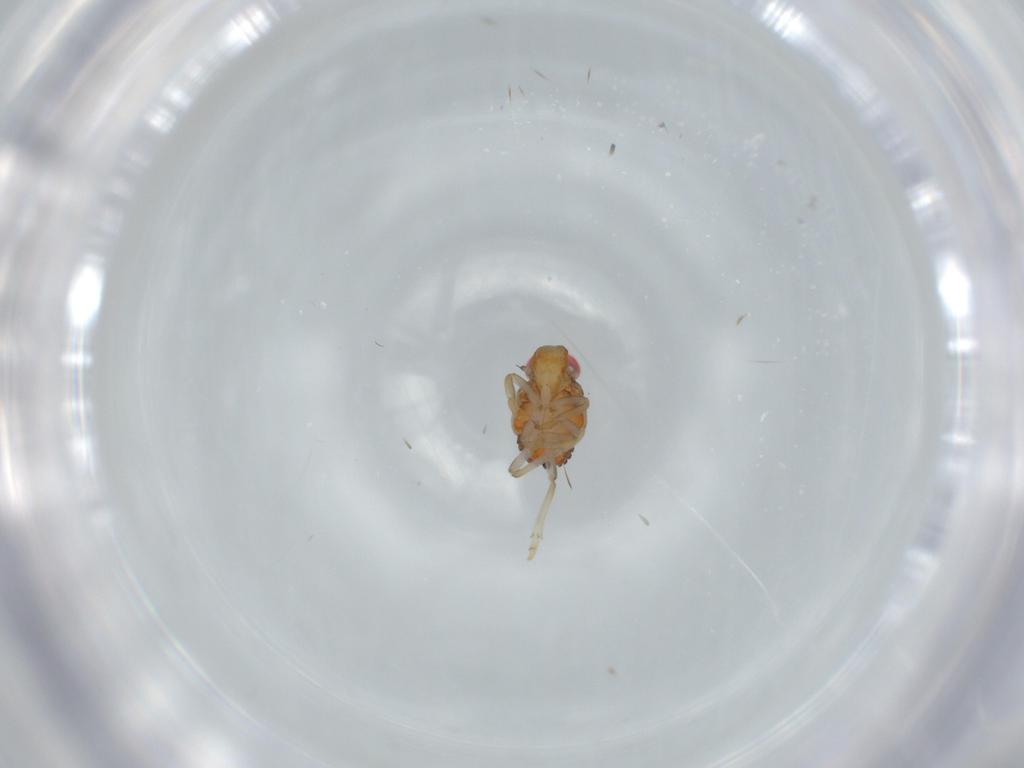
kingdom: Animalia
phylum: Arthropoda
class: Insecta
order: Hemiptera
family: Issidae
